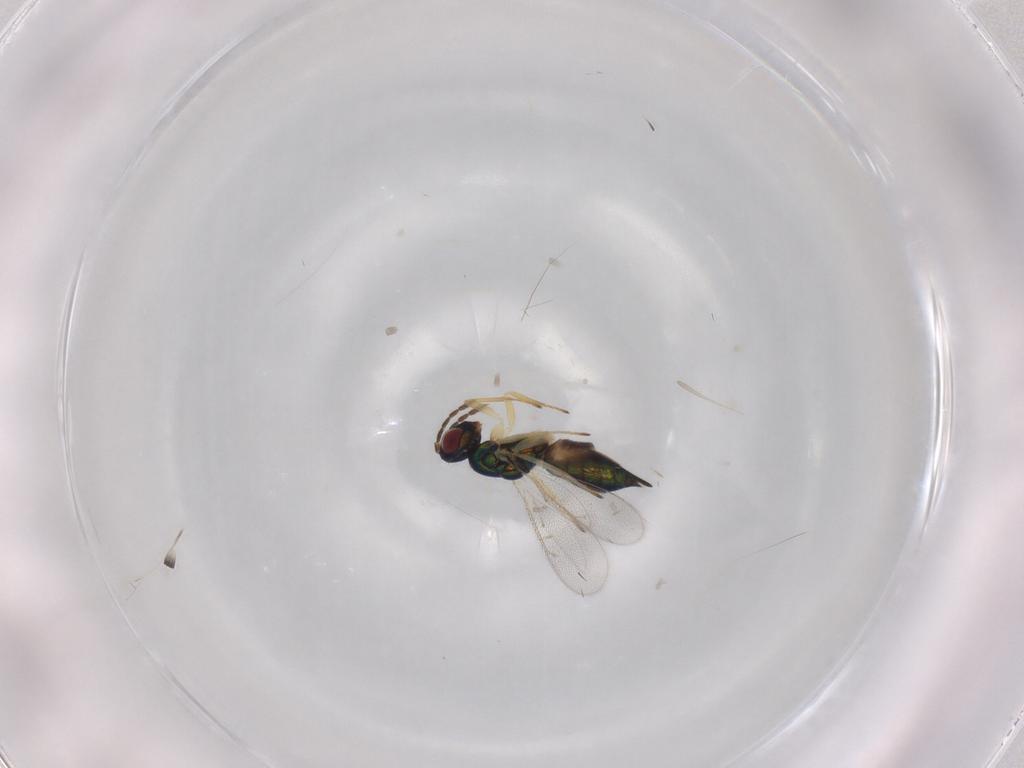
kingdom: Animalia
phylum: Arthropoda
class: Insecta
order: Hymenoptera
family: Eulophidae
